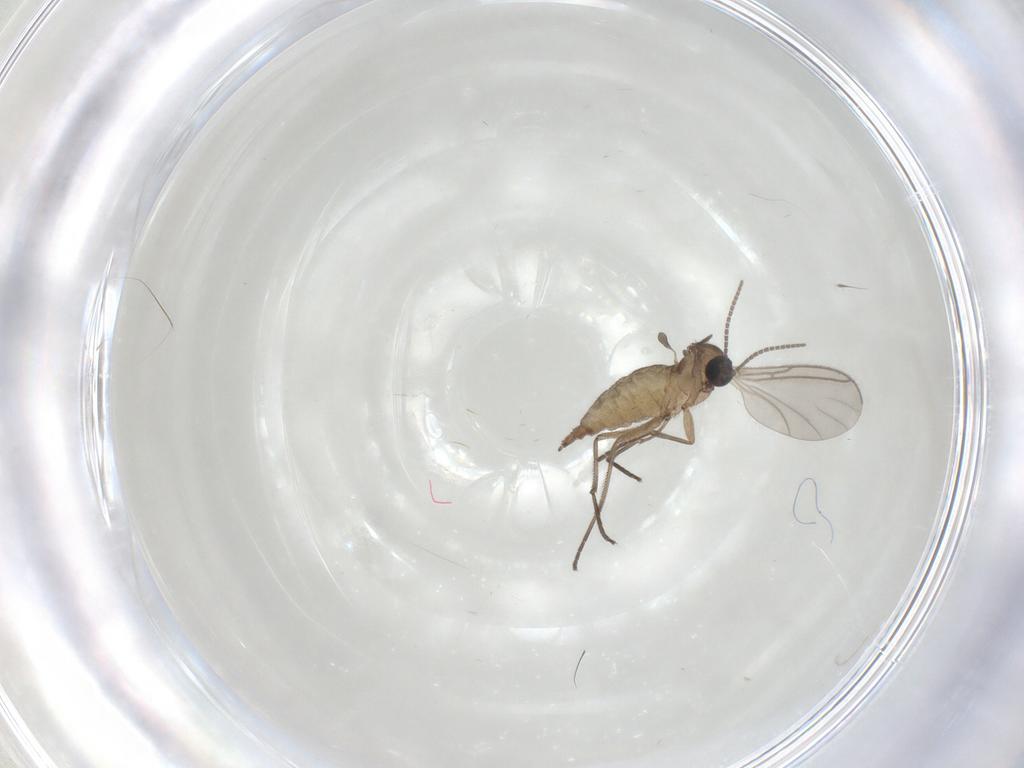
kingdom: Animalia
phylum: Arthropoda
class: Insecta
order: Diptera
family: Sciaridae
